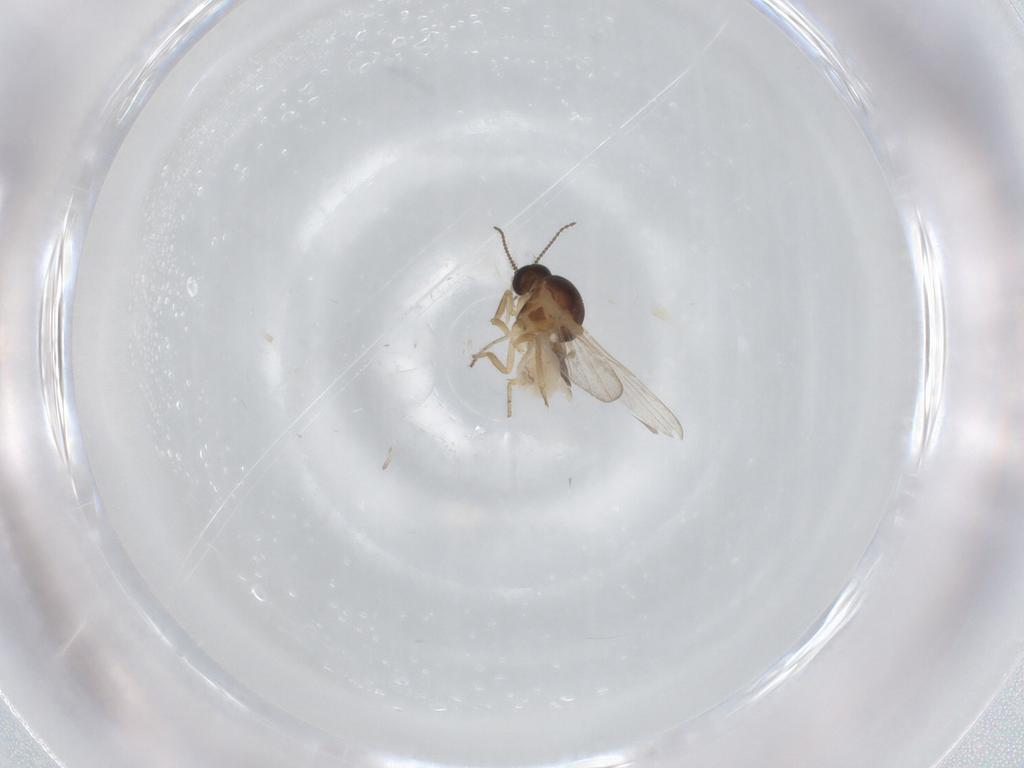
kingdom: Animalia
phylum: Arthropoda
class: Insecta
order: Diptera
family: Ceratopogonidae
